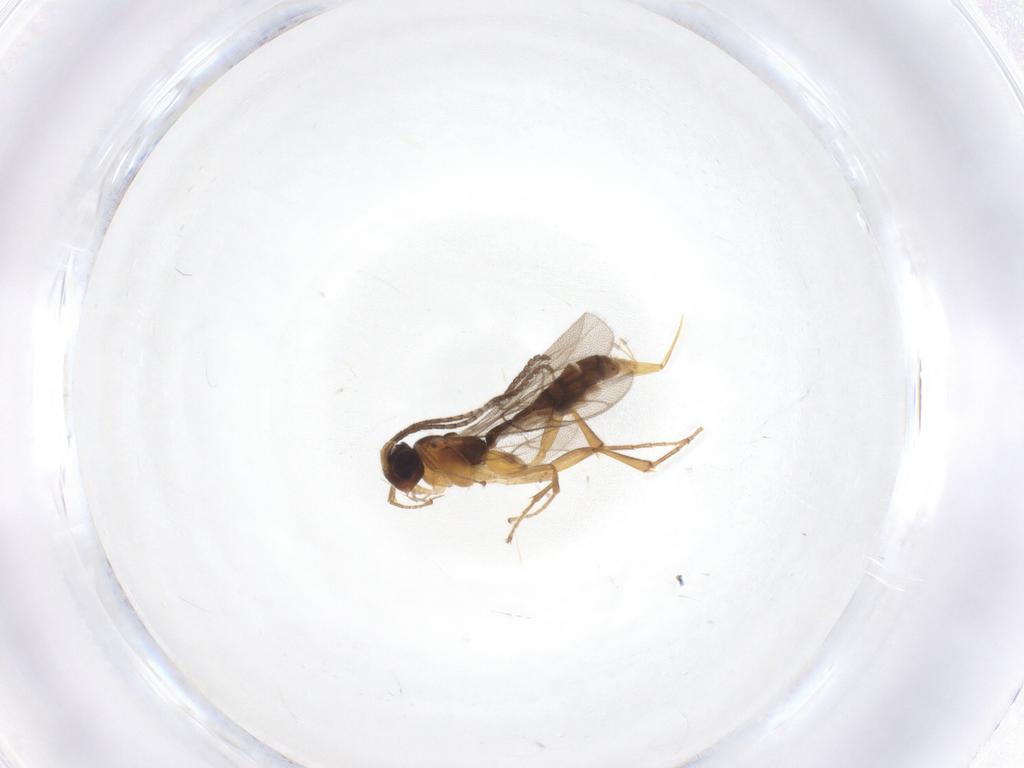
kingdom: Animalia
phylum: Arthropoda
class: Insecta
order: Hymenoptera
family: Ichneumonidae
